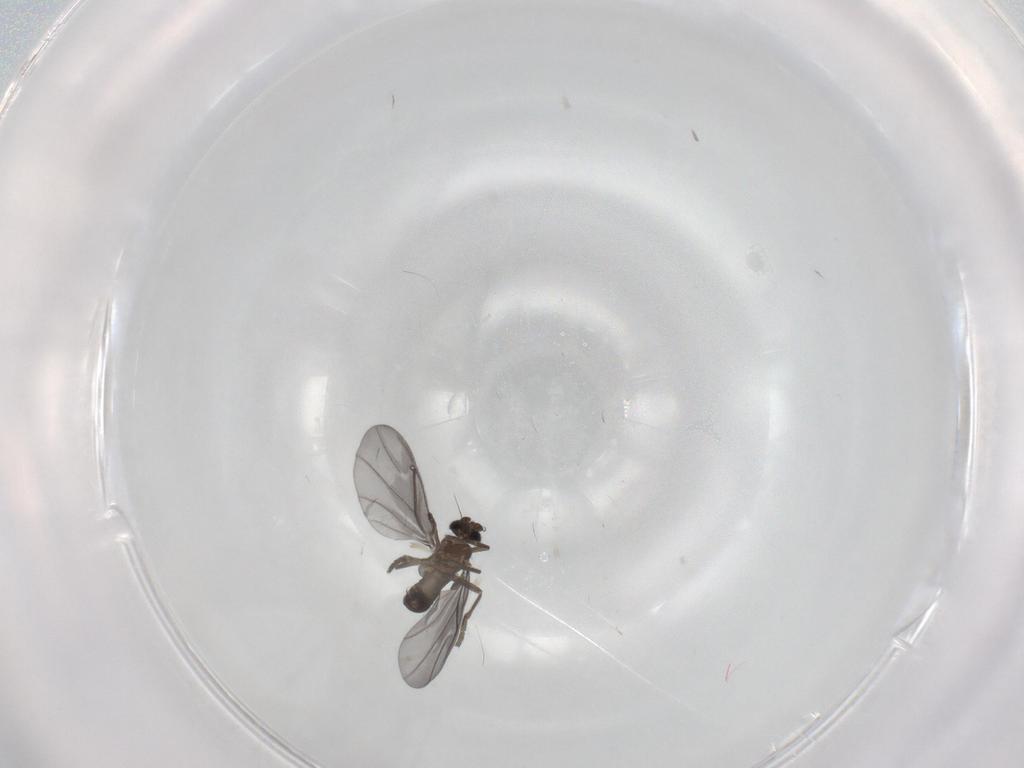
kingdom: Animalia
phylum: Arthropoda
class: Insecta
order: Diptera
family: Phoridae
